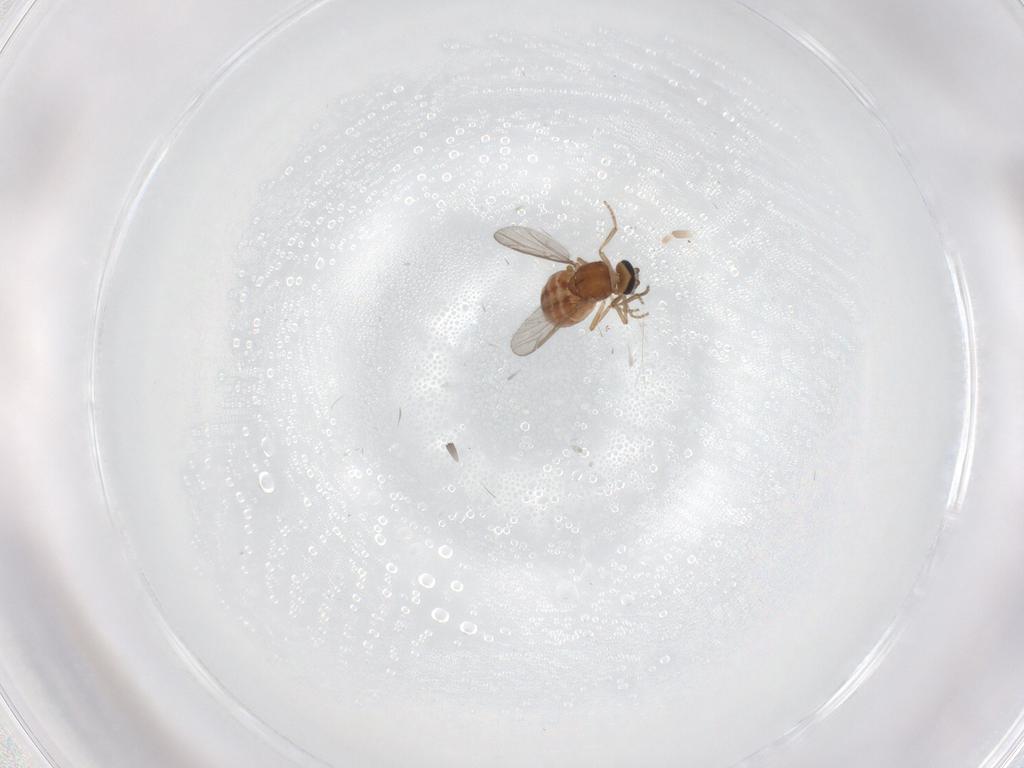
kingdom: Animalia
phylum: Arthropoda
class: Insecta
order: Diptera
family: Ceratopogonidae
